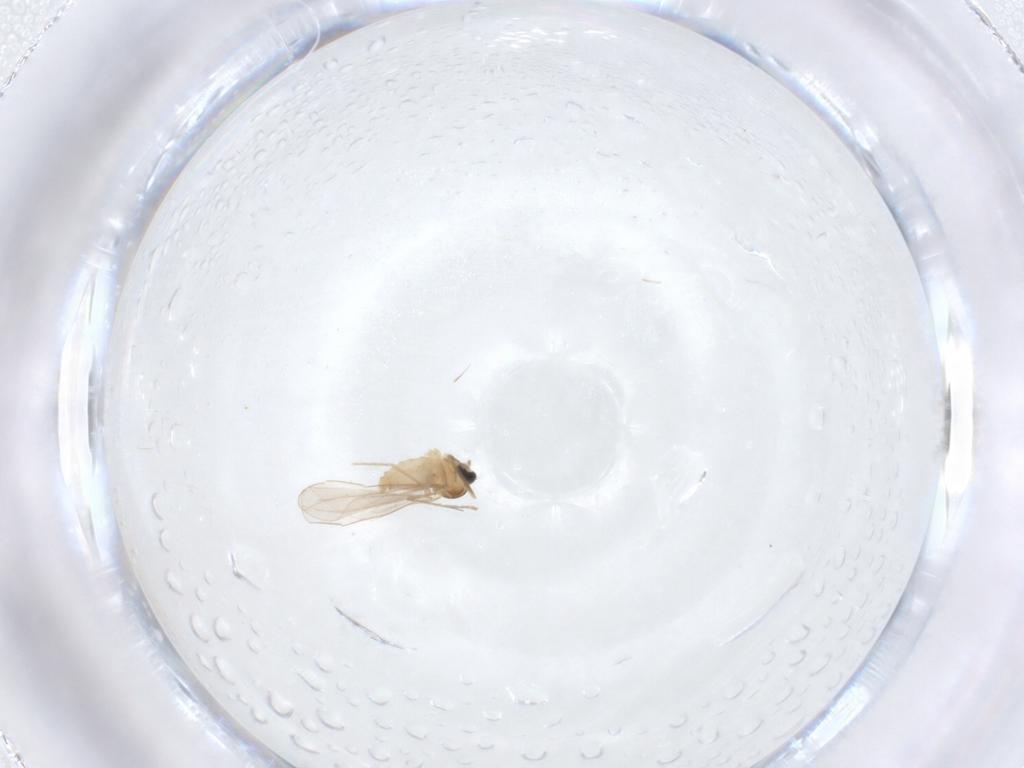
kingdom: Animalia
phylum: Arthropoda
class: Insecta
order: Diptera
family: Cecidomyiidae
